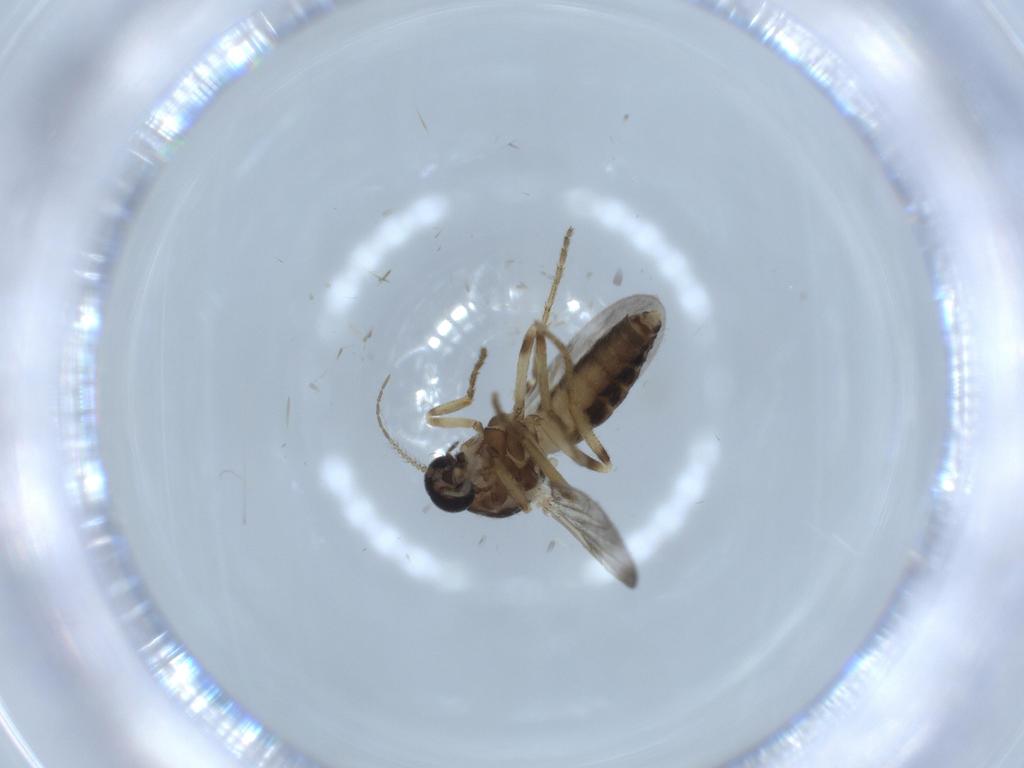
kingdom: Animalia
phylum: Arthropoda
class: Insecta
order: Diptera
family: Ceratopogonidae
